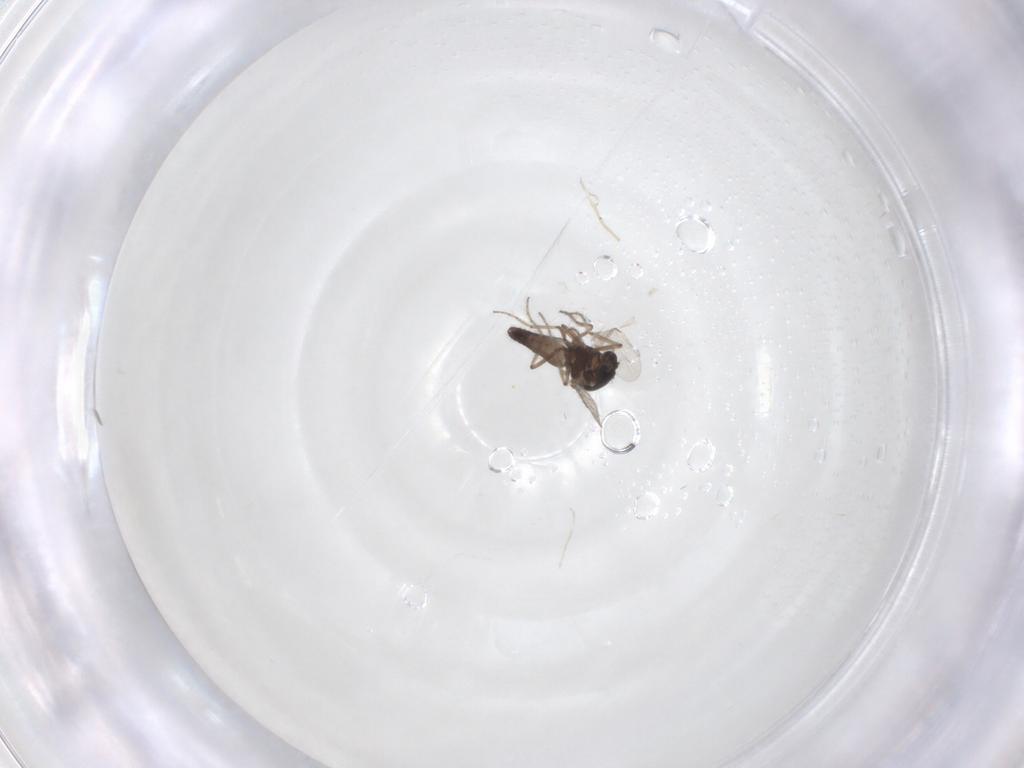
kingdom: Animalia
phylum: Arthropoda
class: Insecta
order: Diptera
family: Ceratopogonidae
